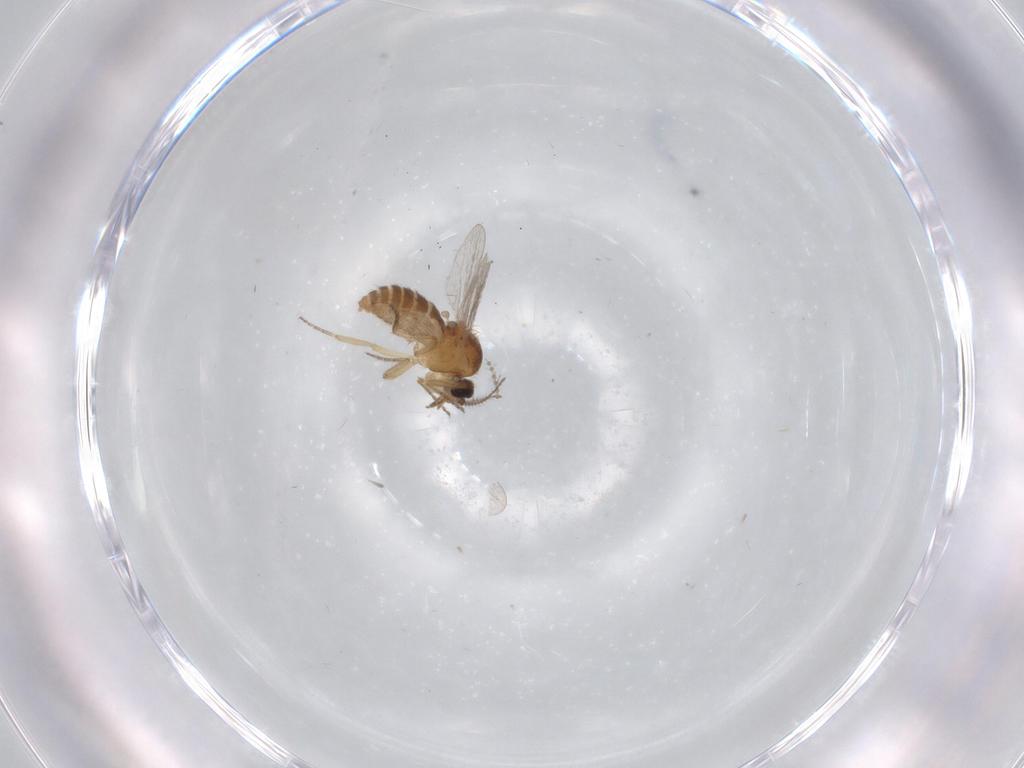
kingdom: Animalia
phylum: Arthropoda
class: Insecta
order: Diptera
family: Ceratopogonidae
